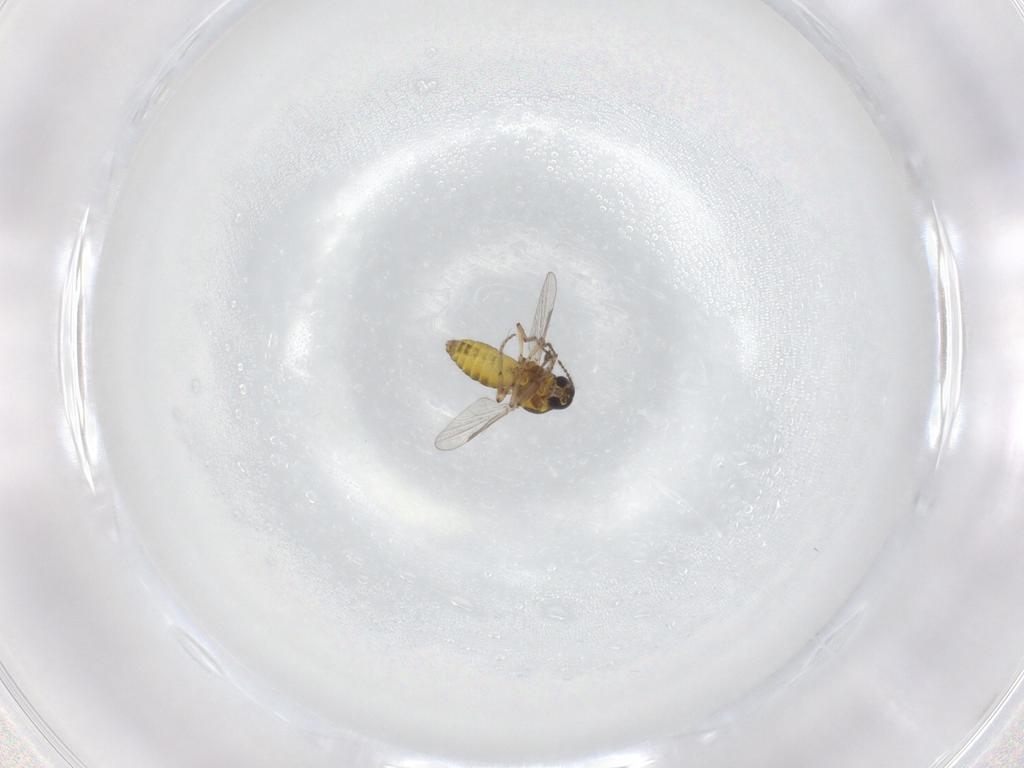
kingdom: Animalia
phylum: Arthropoda
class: Insecta
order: Diptera
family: Ceratopogonidae
